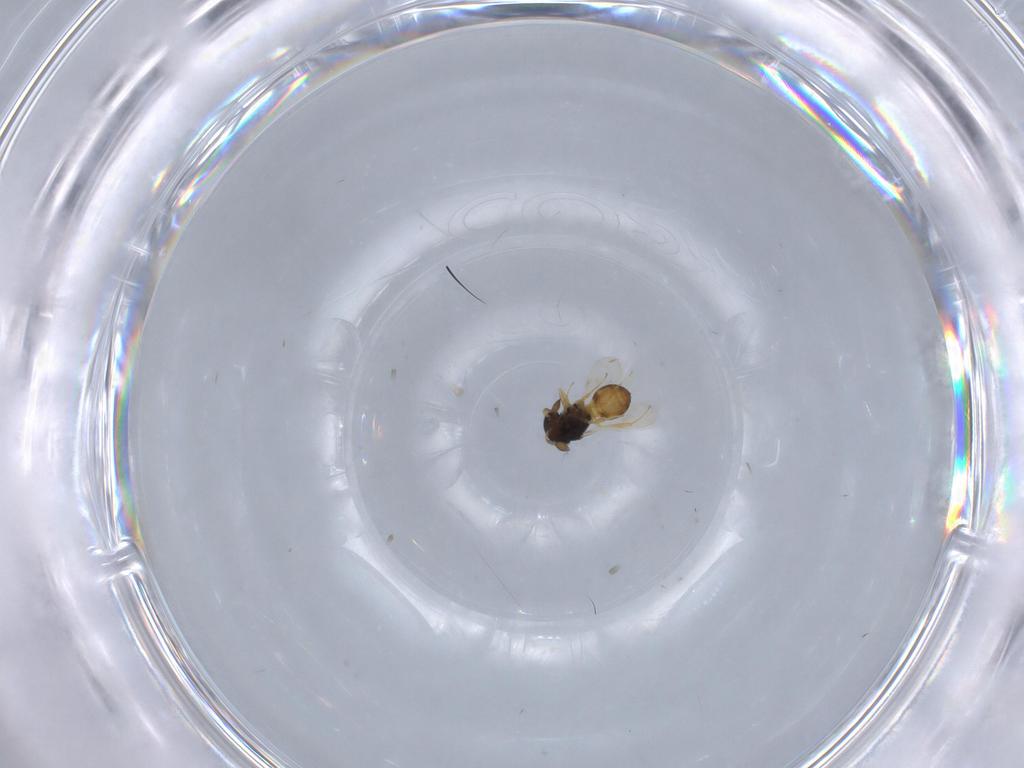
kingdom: Animalia
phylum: Arthropoda
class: Insecta
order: Hymenoptera
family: Scelionidae
